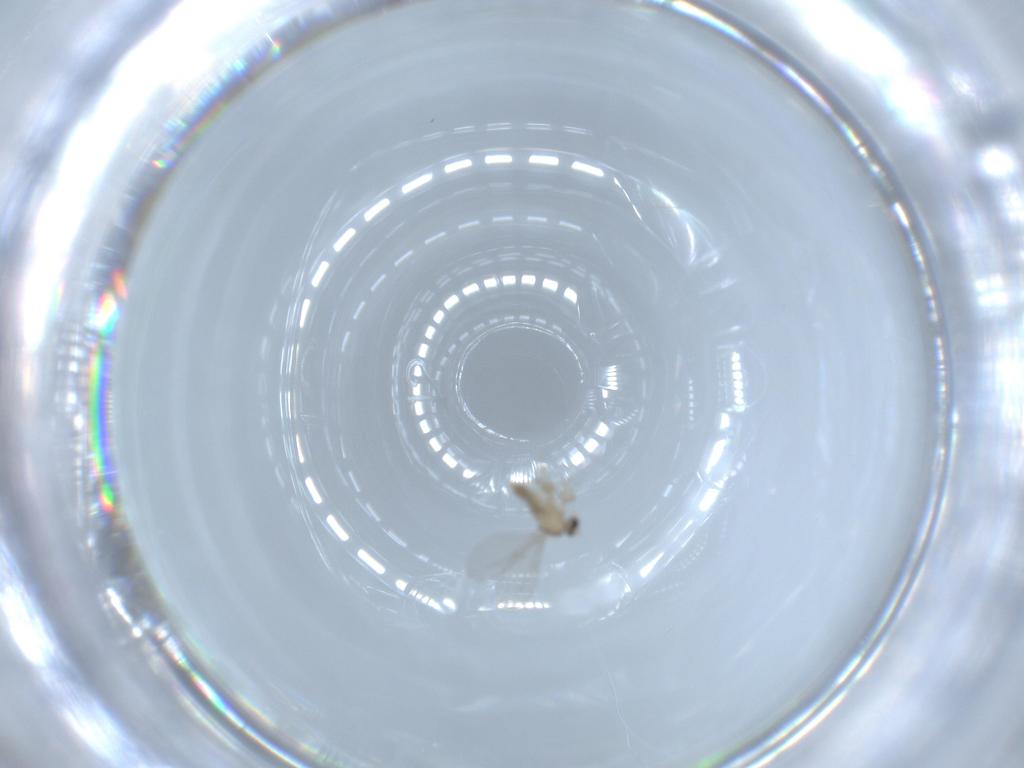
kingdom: Animalia
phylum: Arthropoda
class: Insecta
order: Diptera
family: Cecidomyiidae
